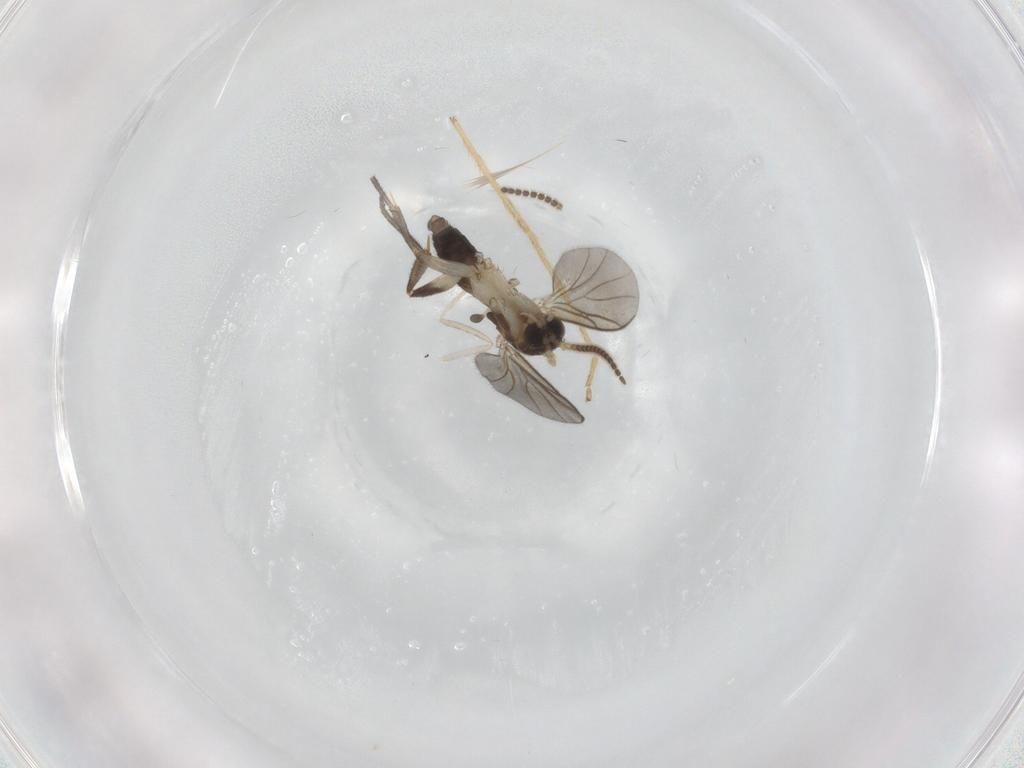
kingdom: Animalia
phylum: Arthropoda
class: Insecta
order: Diptera
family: Cecidomyiidae
